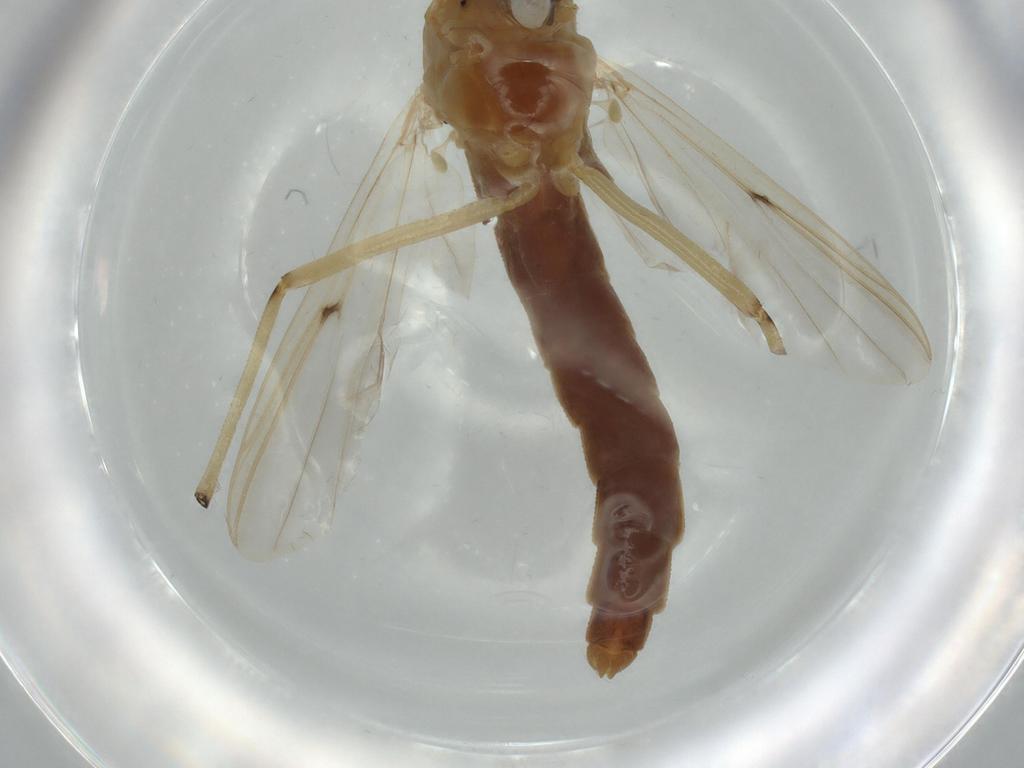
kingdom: Animalia
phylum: Arthropoda
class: Insecta
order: Diptera
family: Chironomidae
